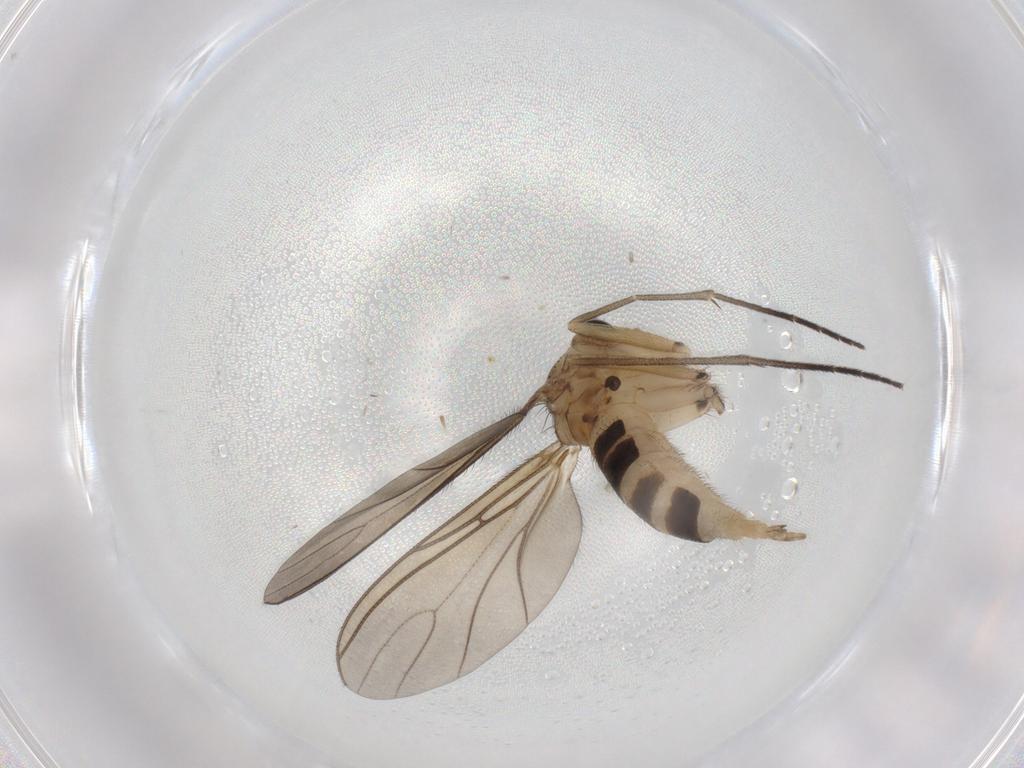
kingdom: Animalia
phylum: Arthropoda
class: Insecta
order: Diptera
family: Sciaridae
